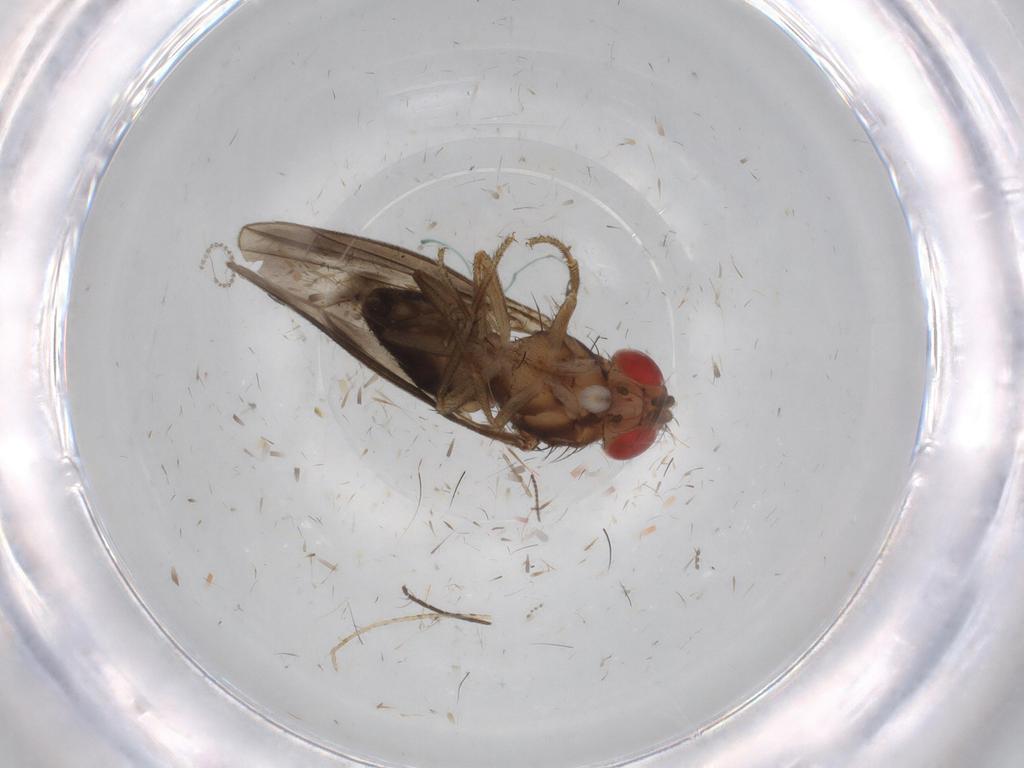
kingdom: Animalia
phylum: Arthropoda
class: Insecta
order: Diptera
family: Drosophilidae
